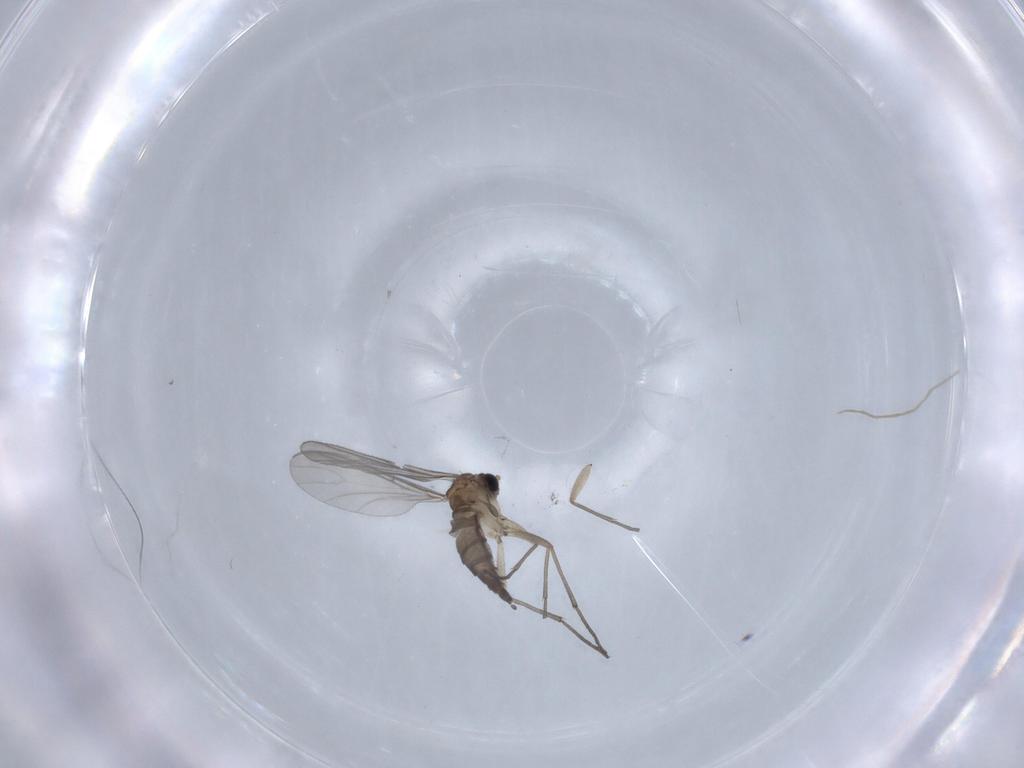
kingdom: Animalia
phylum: Arthropoda
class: Insecta
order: Diptera
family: Sciaridae
